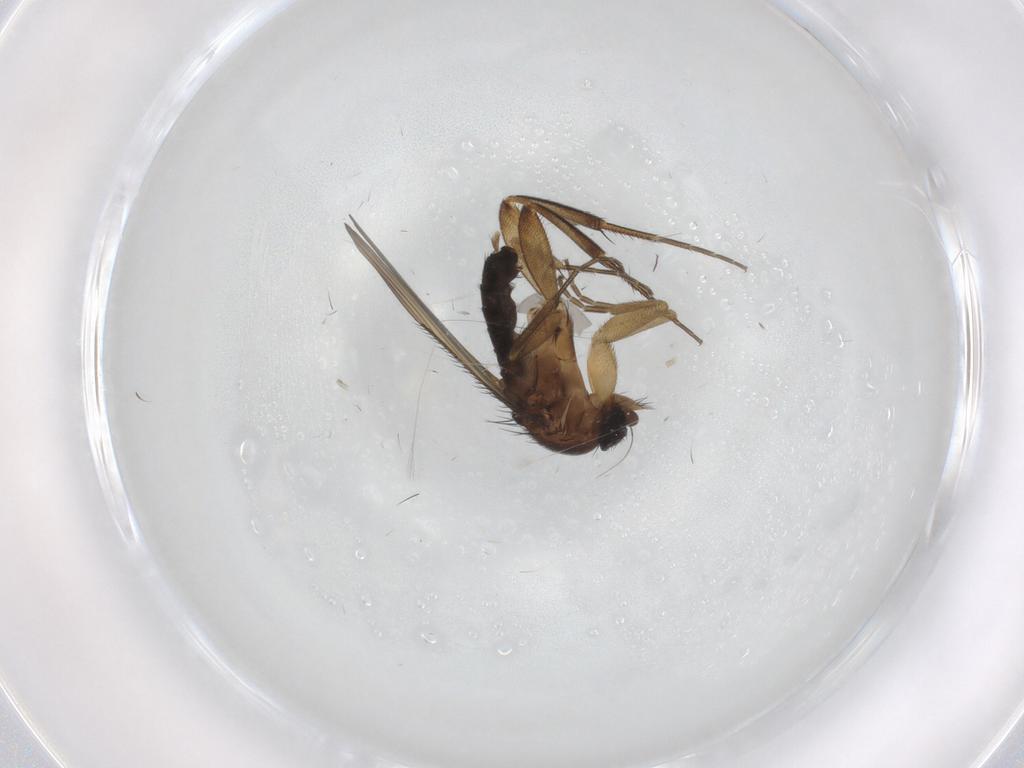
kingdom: Animalia
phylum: Arthropoda
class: Insecta
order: Diptera
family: Phoridae
